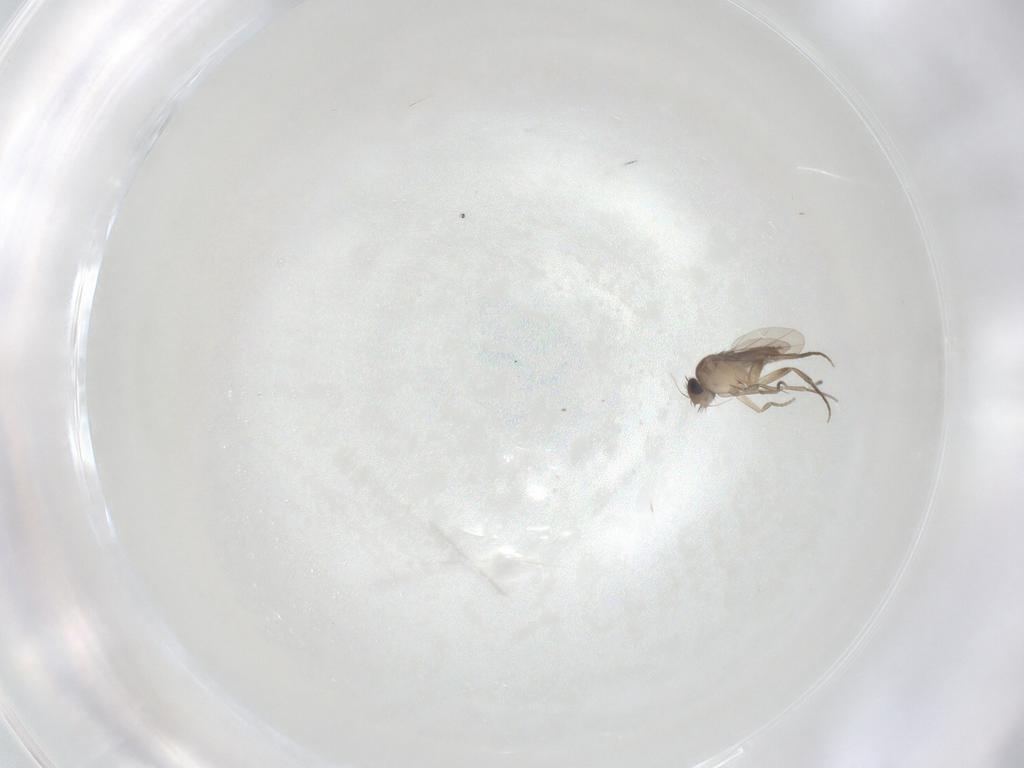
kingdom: Animalia
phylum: Arthropoda
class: Insecta
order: Diptera
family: Phoridae
